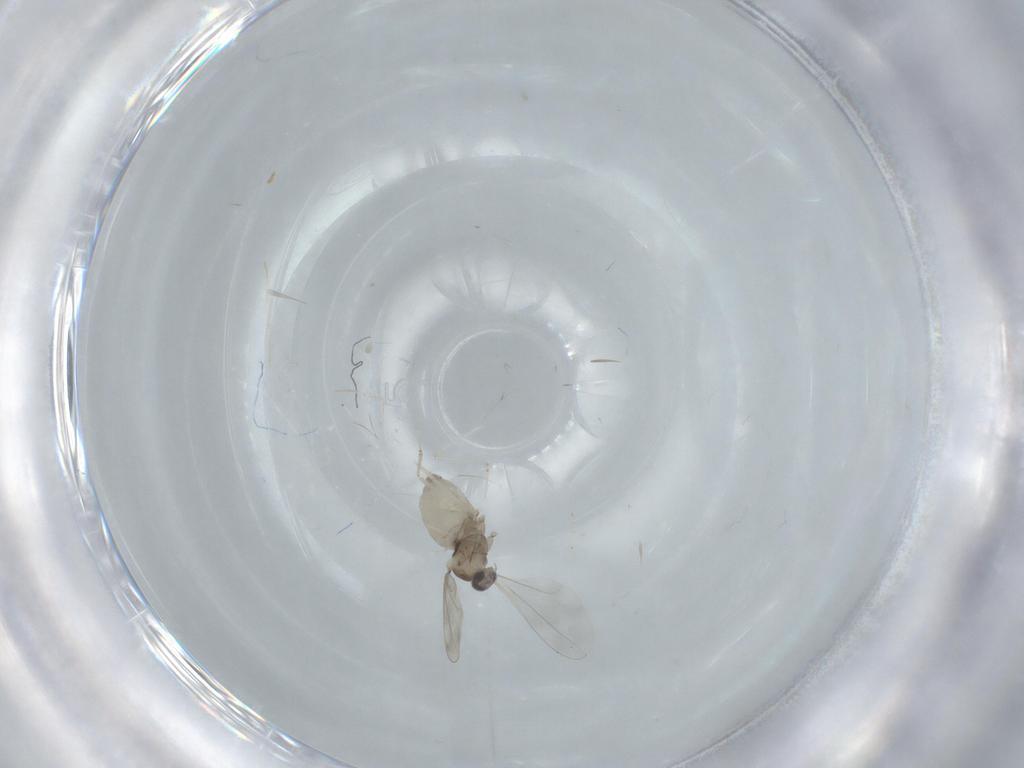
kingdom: Animalia
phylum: Arthropoda
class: Insecta
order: Diptera
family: Cecidomyiidae
